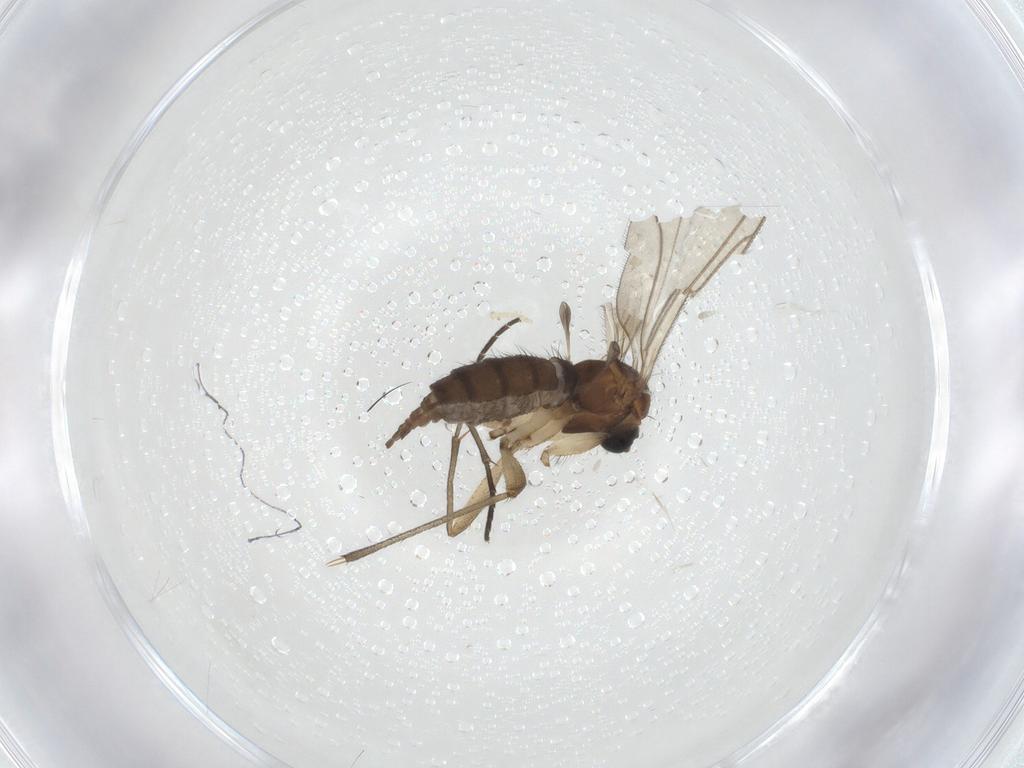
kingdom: Animalia
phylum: Arthropoda
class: Insecta
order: Diptera
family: Sciaridae
